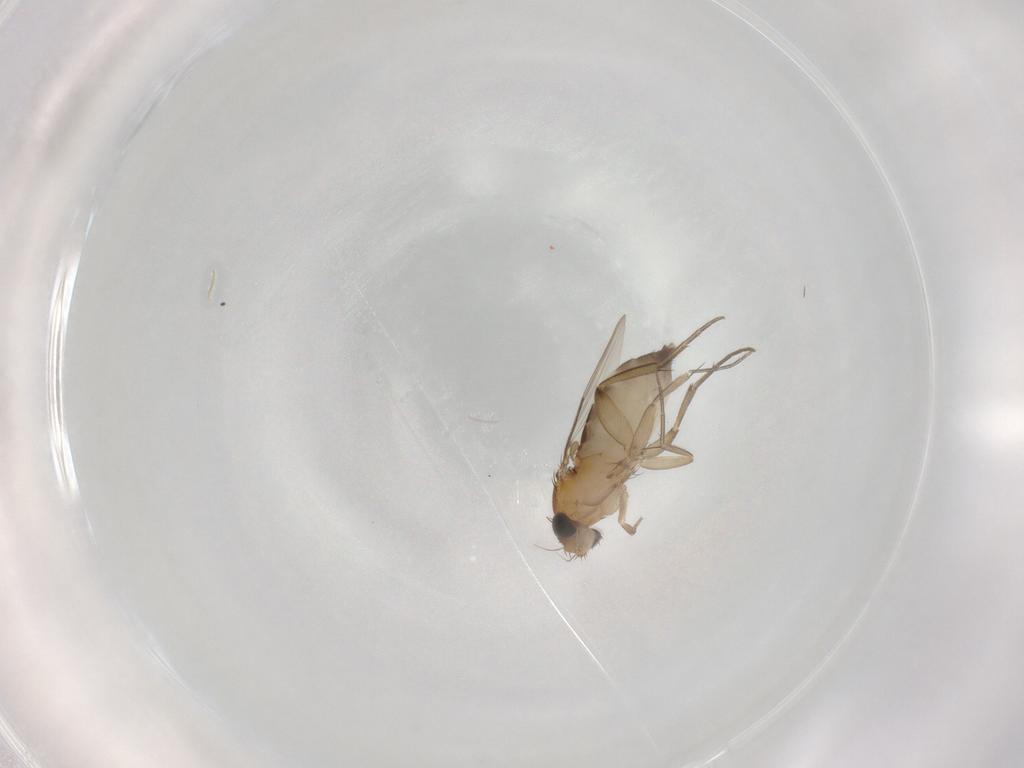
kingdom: Animalia
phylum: Arthropoda
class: Insecta
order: Diptera
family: Phoridae
